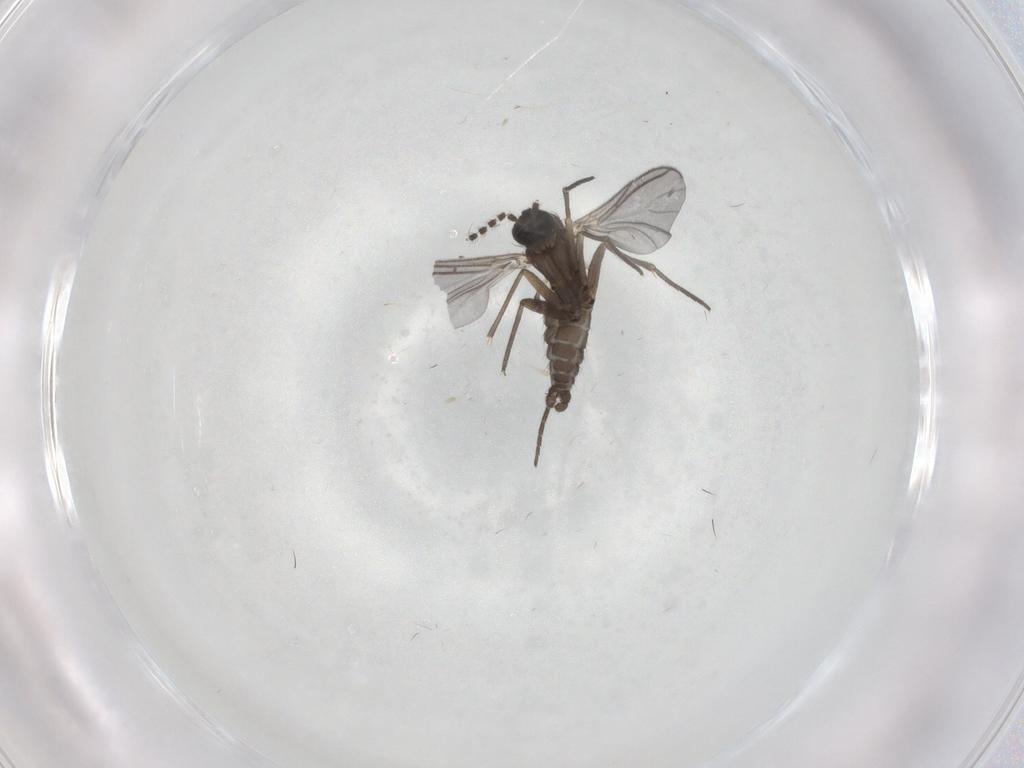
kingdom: Animalia
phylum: Arthropoda
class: Insecta
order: Diptera
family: Sciaridae
